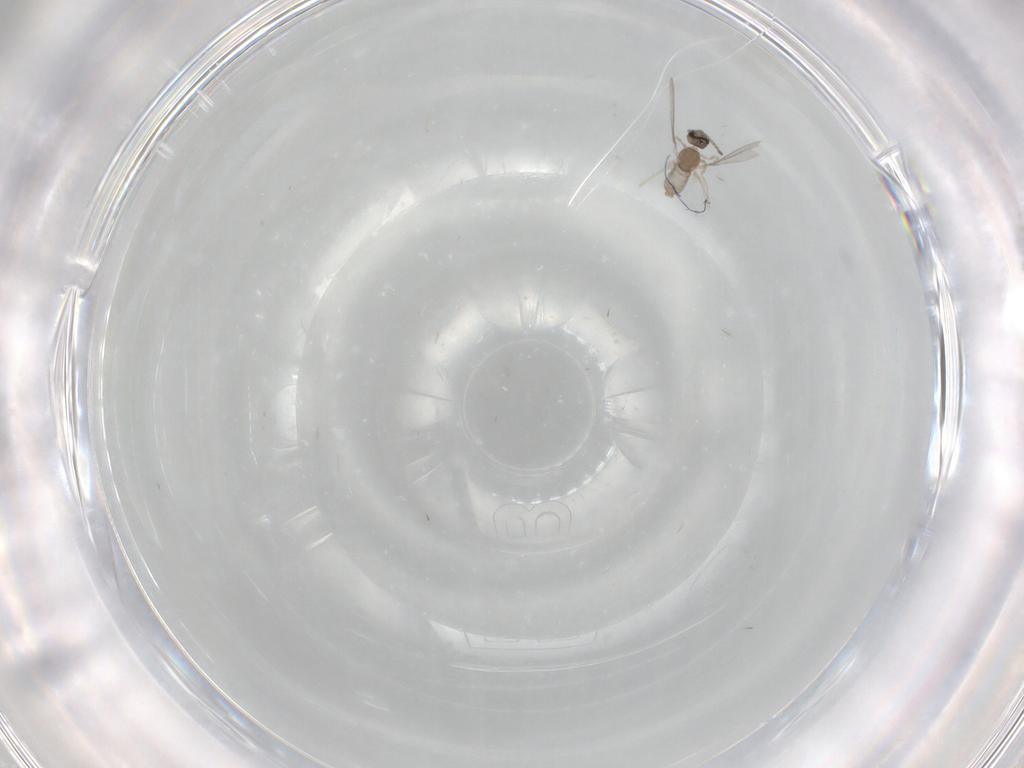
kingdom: Animalia
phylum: Arthropoda
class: Insecta
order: Diptera
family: Cecidomyiidae
